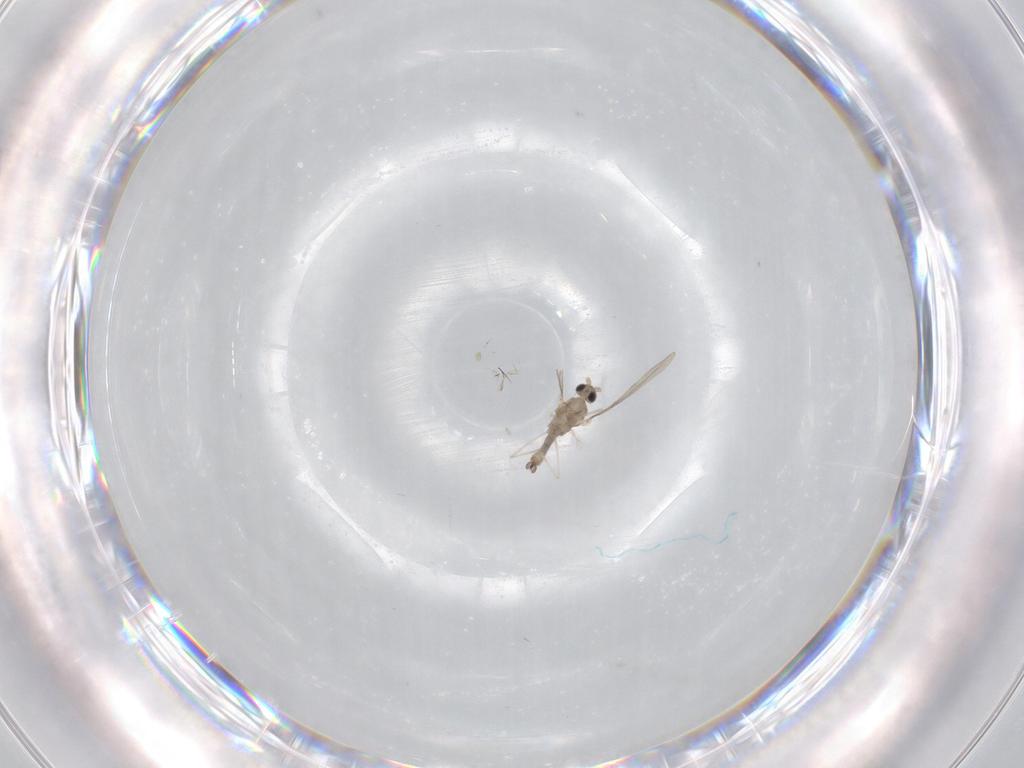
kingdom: Animalia
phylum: Arthropoda
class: Insecta
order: Diptera
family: Cecidomyiidae
